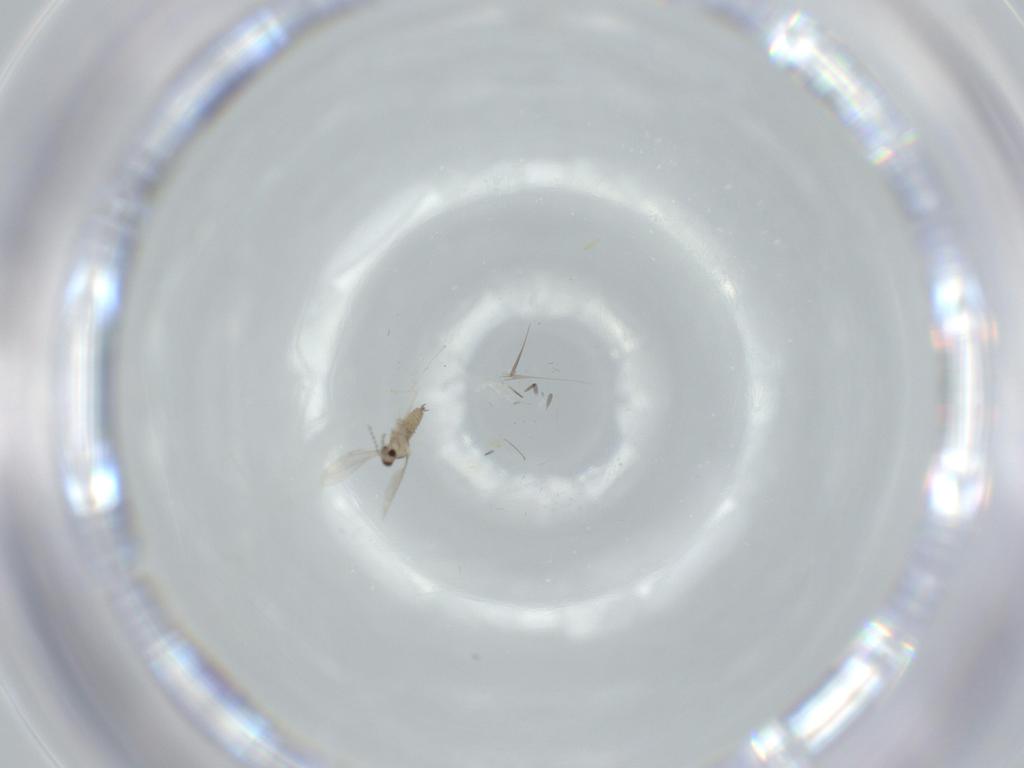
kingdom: Animalia
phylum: Arthropoda
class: Insecta
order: Diptera
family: Cecidomyiidae
